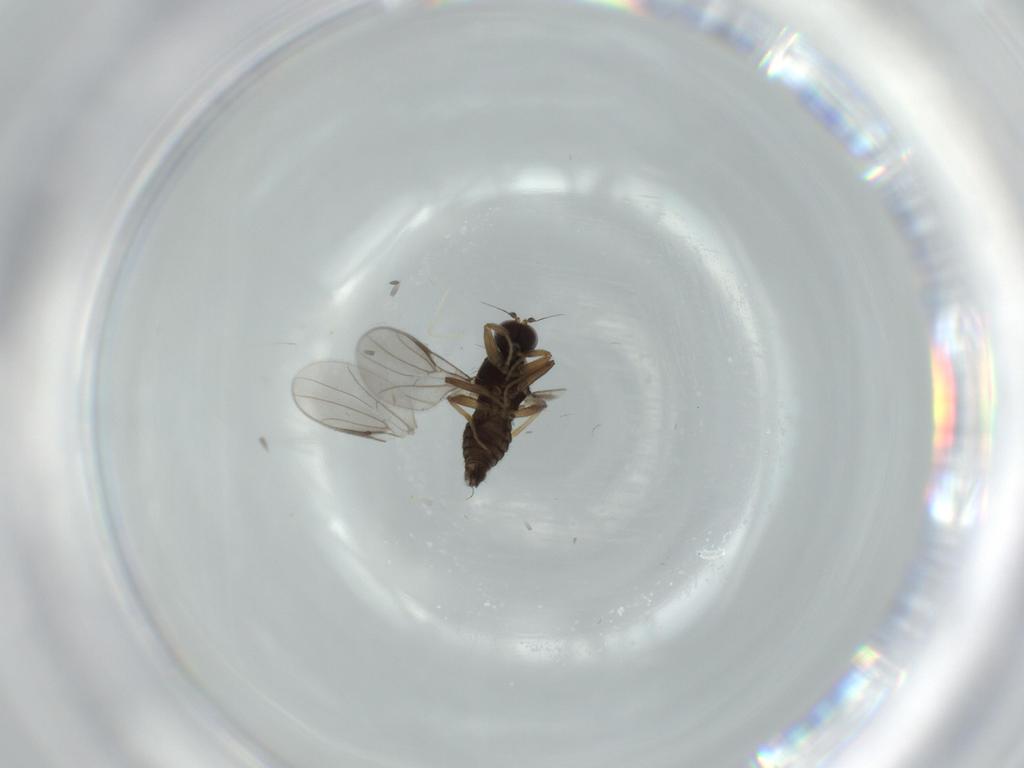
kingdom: Animalia
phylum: Arthropoda
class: Insecta
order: Diptera
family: Hybotidae
